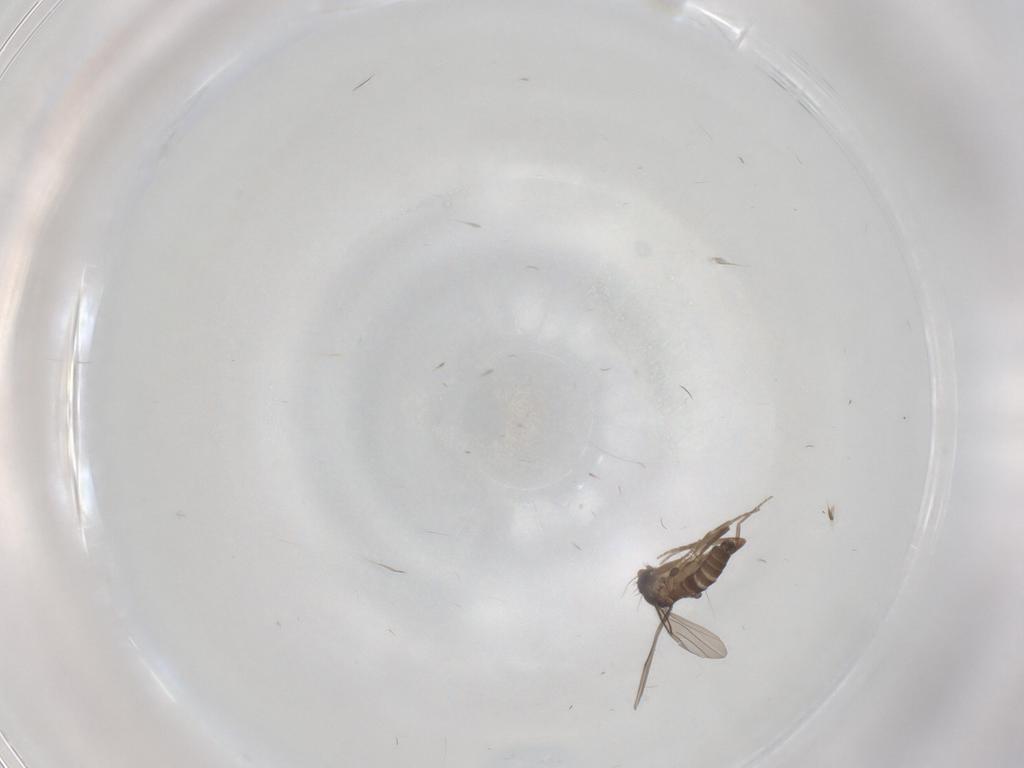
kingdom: Animalia
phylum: Arthropoda
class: Insecta
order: Diptera
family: Phoridae
